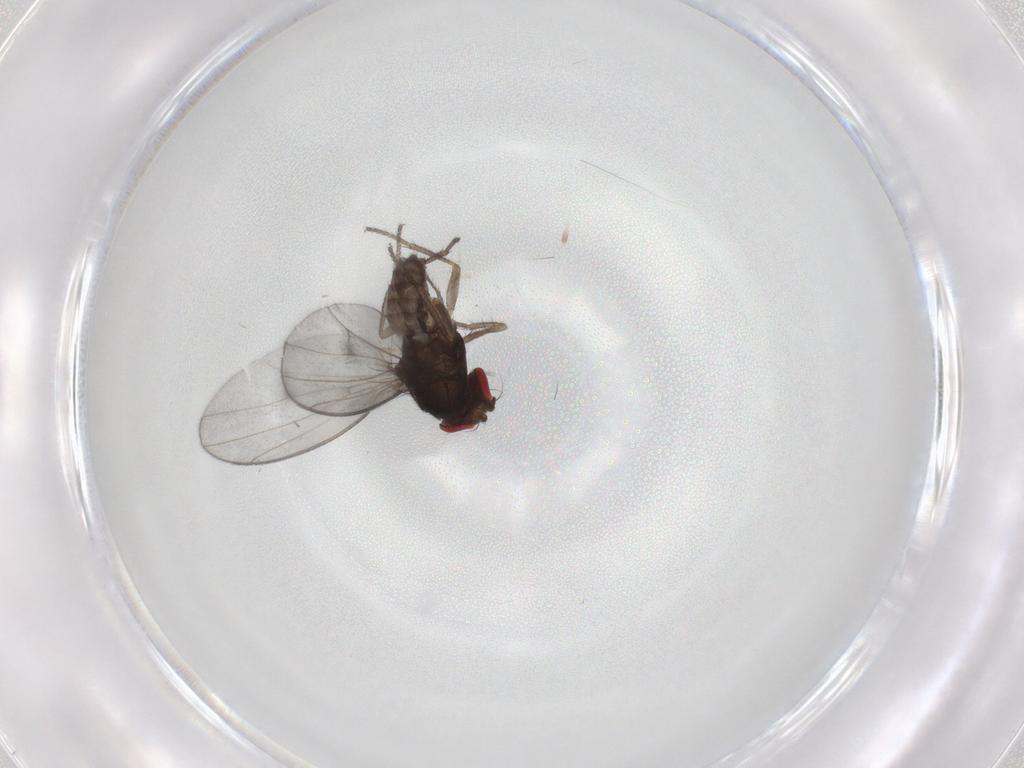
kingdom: Animalia
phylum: Arthropoda
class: Insecta
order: Diptera
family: Drosophilidae
